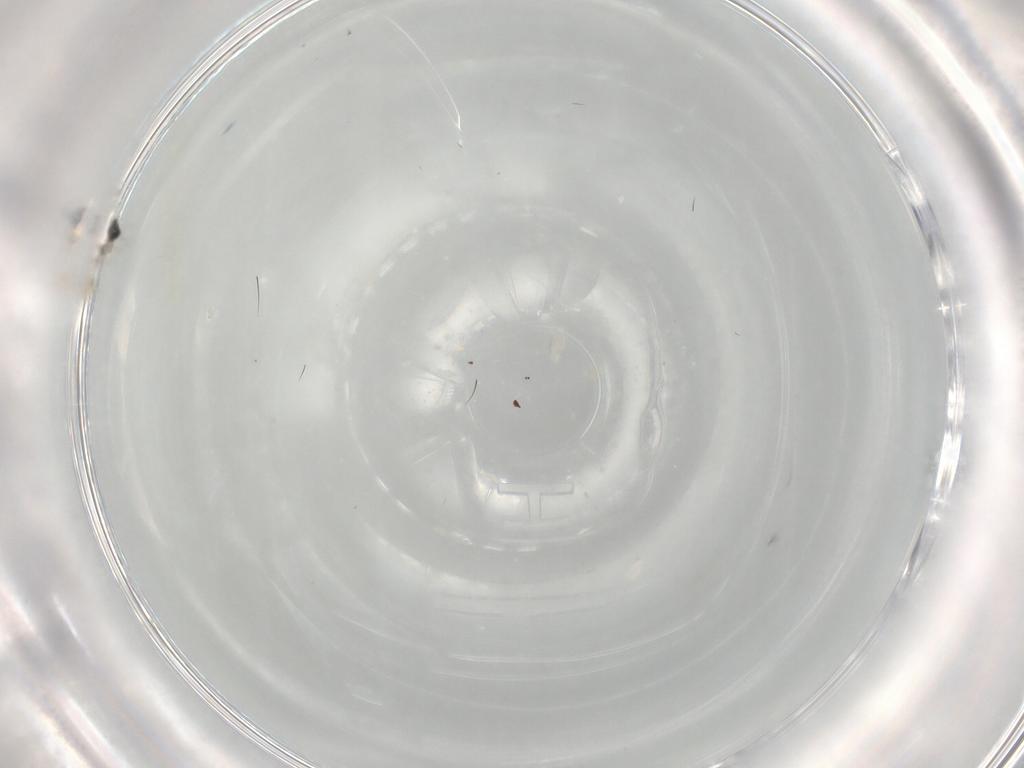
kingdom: Animalia
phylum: Arthropoda
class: Insecta
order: Diptera
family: Cecidomyiidae
